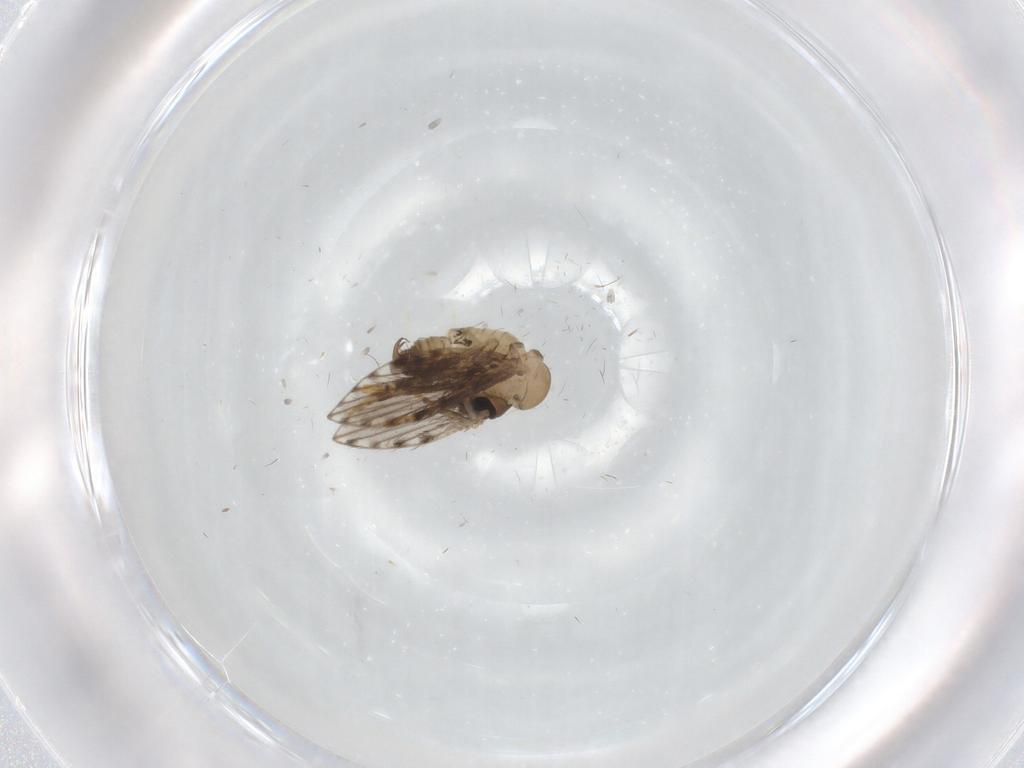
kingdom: Animalia
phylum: Arthropoda
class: Insecta
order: Diptera
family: Psychodidae
